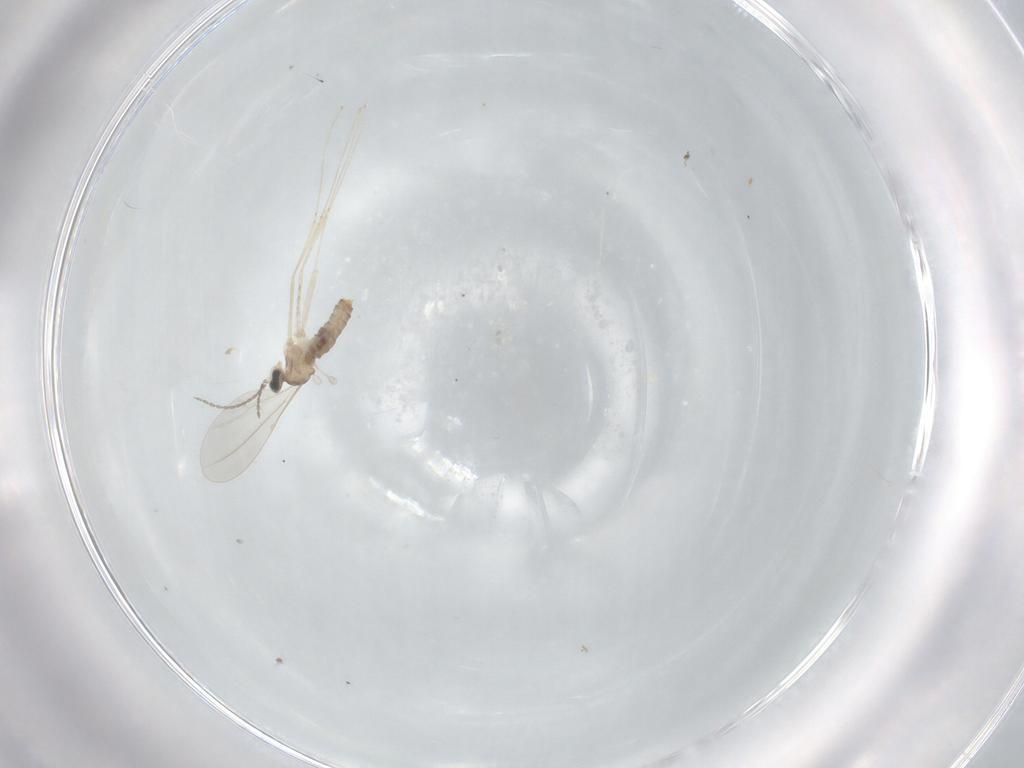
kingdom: Animalia
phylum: Arthropoda
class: Insecta
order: Diptera
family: Cecidomyiidae
